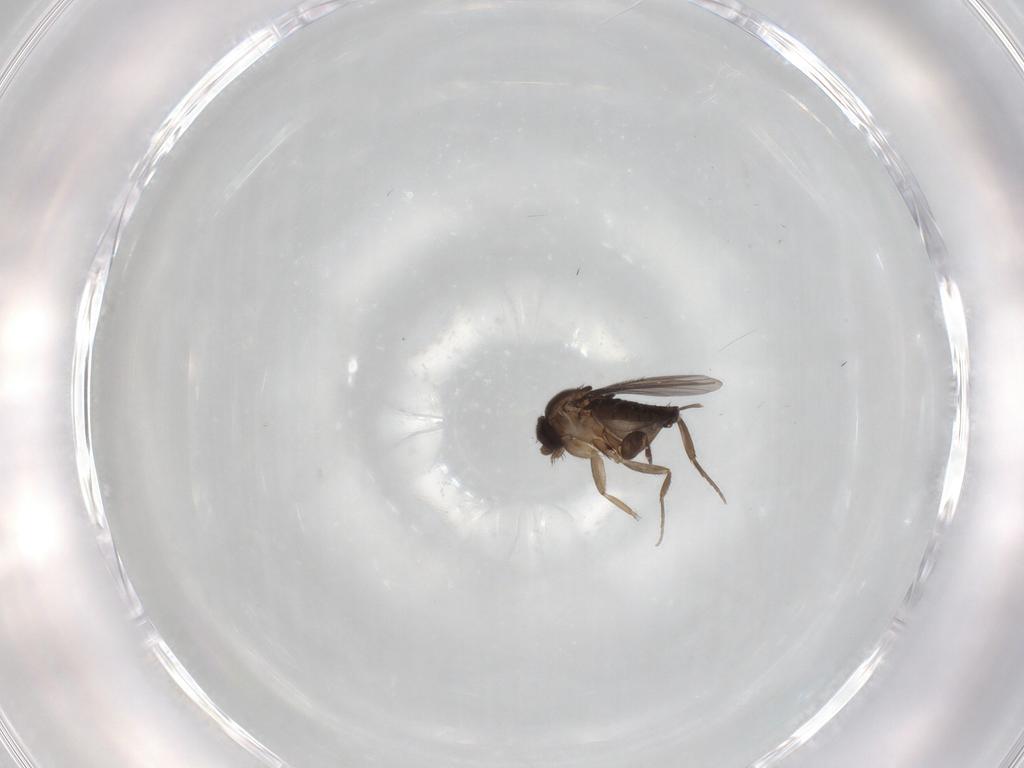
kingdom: Animalia
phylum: Arthropoda
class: Insecta
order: Diptera
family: Phoridae
